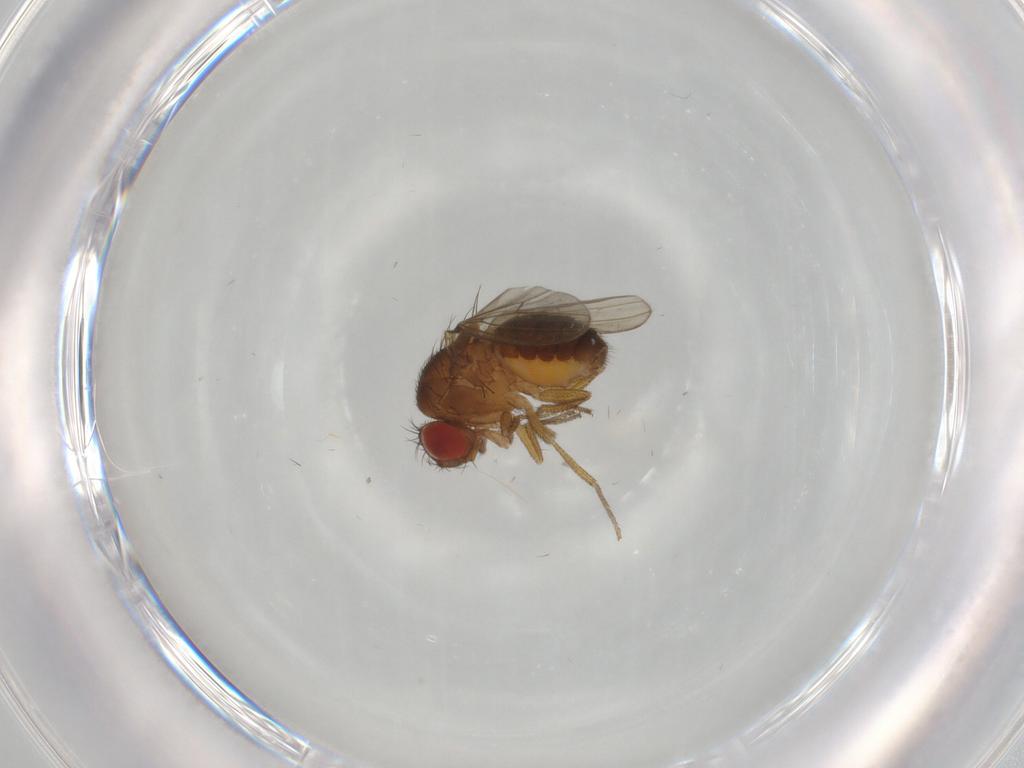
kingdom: Animalia
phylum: Arthropoda
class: Insecta
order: Diptera
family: Drosophilidae
